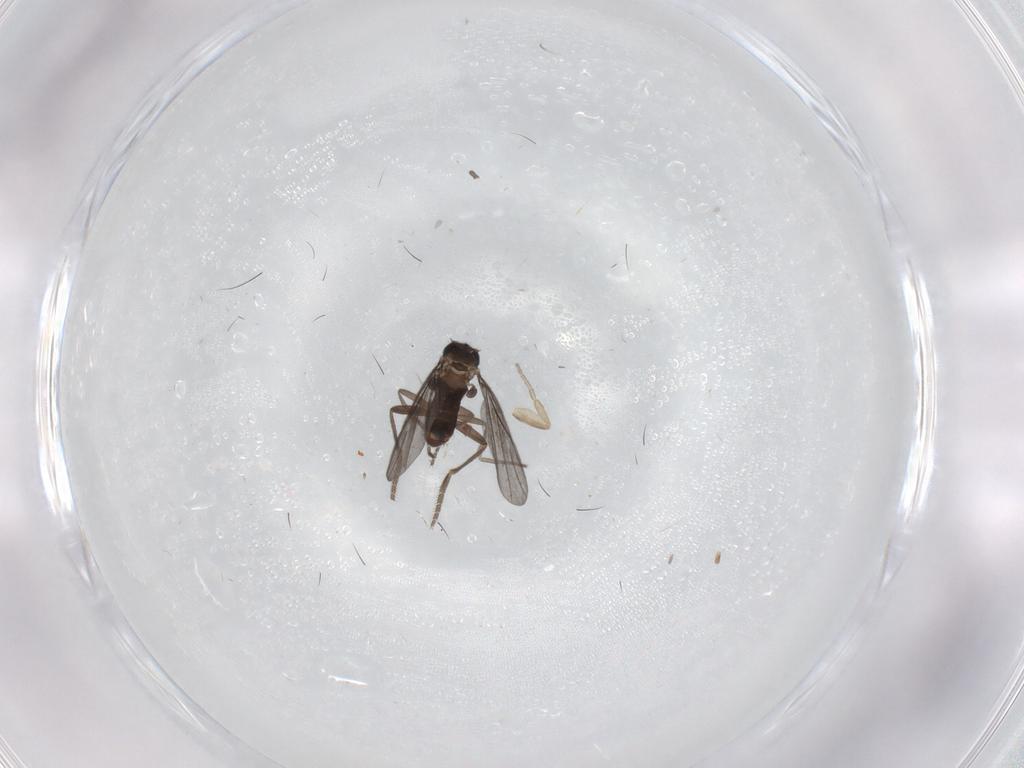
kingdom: Animalia
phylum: Arthropoda
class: Insecta
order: Diptera
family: Phoridae
